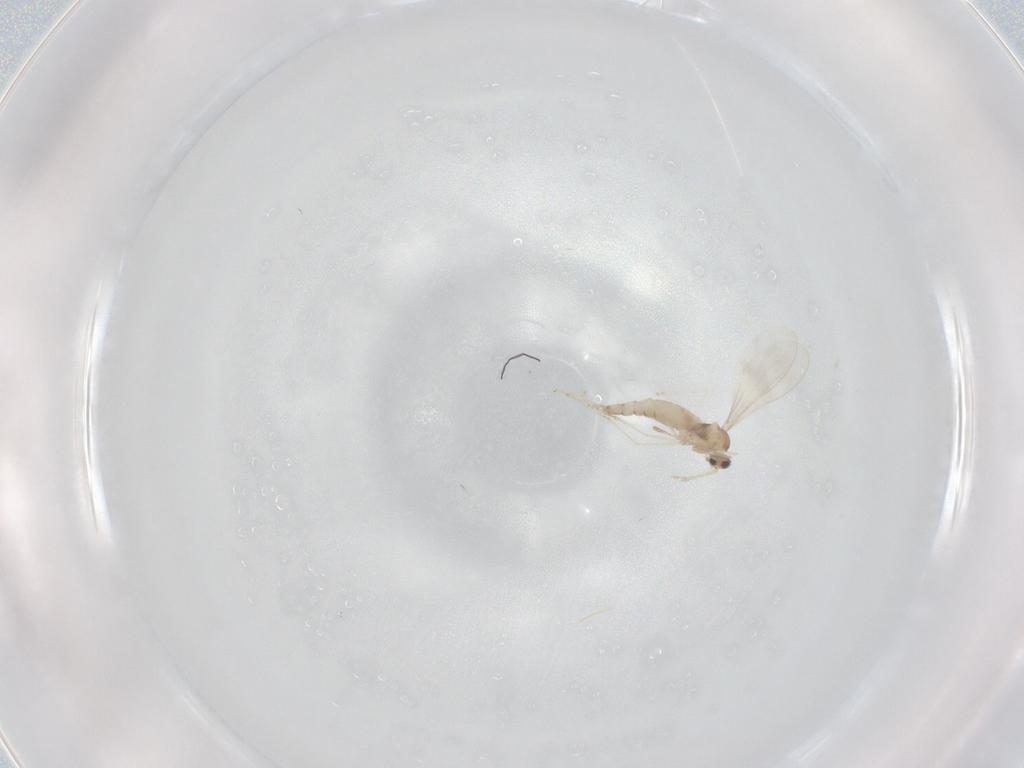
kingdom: Animalia
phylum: Arthropoda
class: Insecta
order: Diptera
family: Cecidomyiidae
